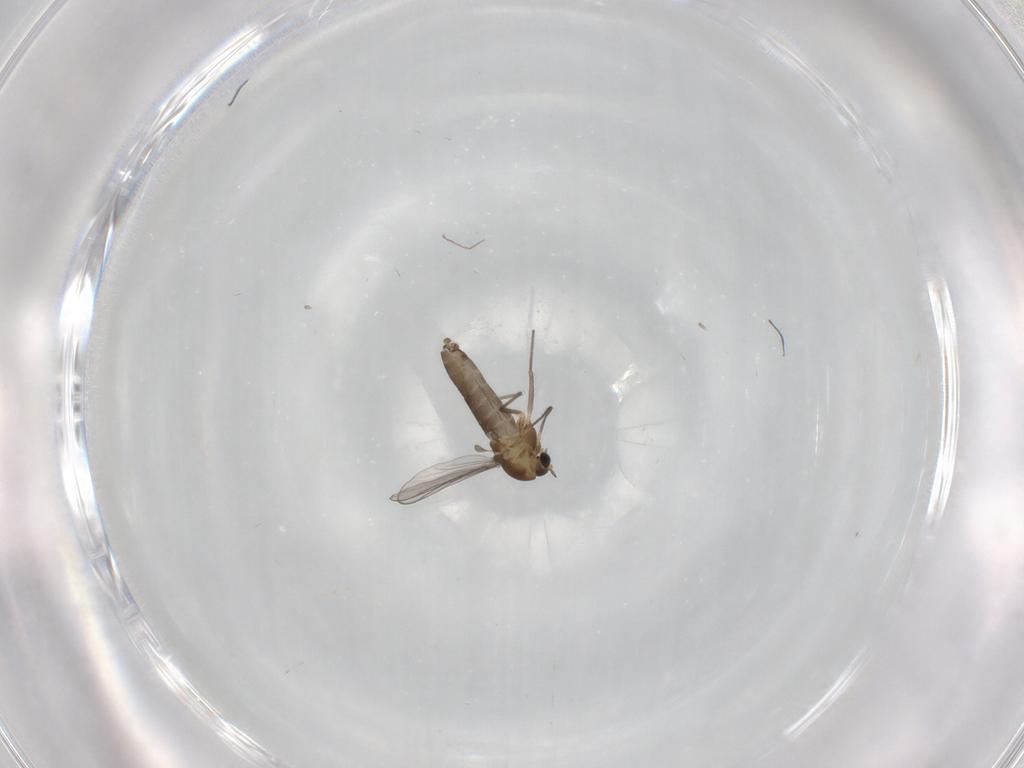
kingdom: Animalia
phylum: Arthropoda
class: Insecta
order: Diptera
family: Chironomidae
